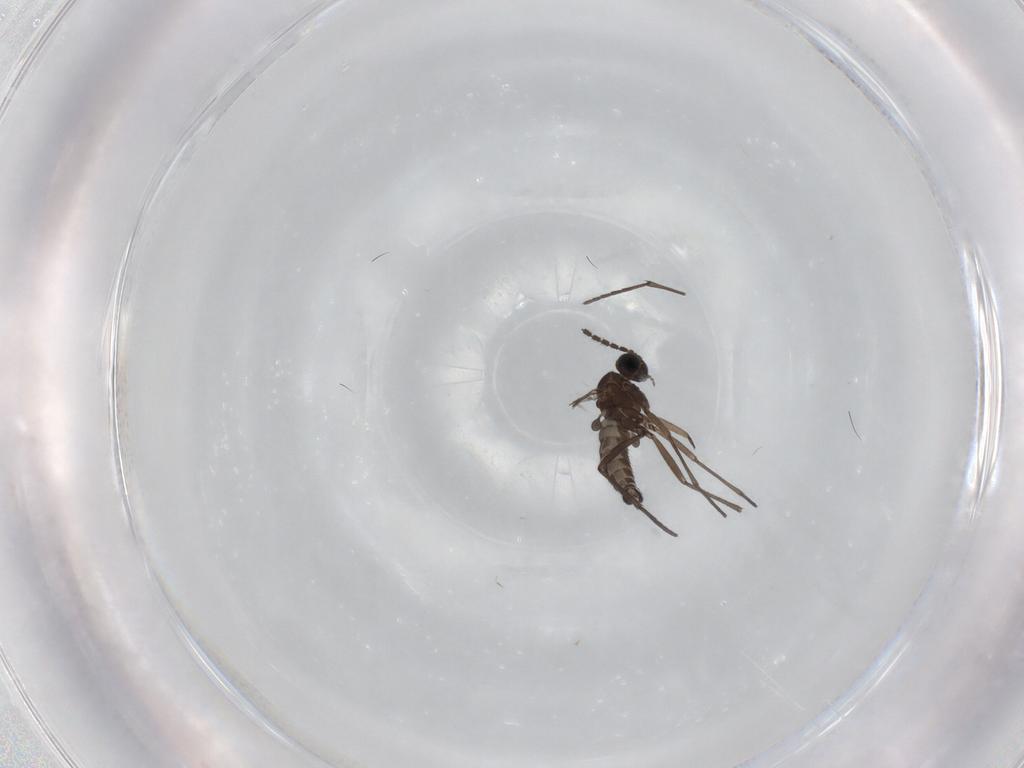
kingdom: Animalia
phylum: Arthropoda
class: Insecta
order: Diptera
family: Sciaridae
